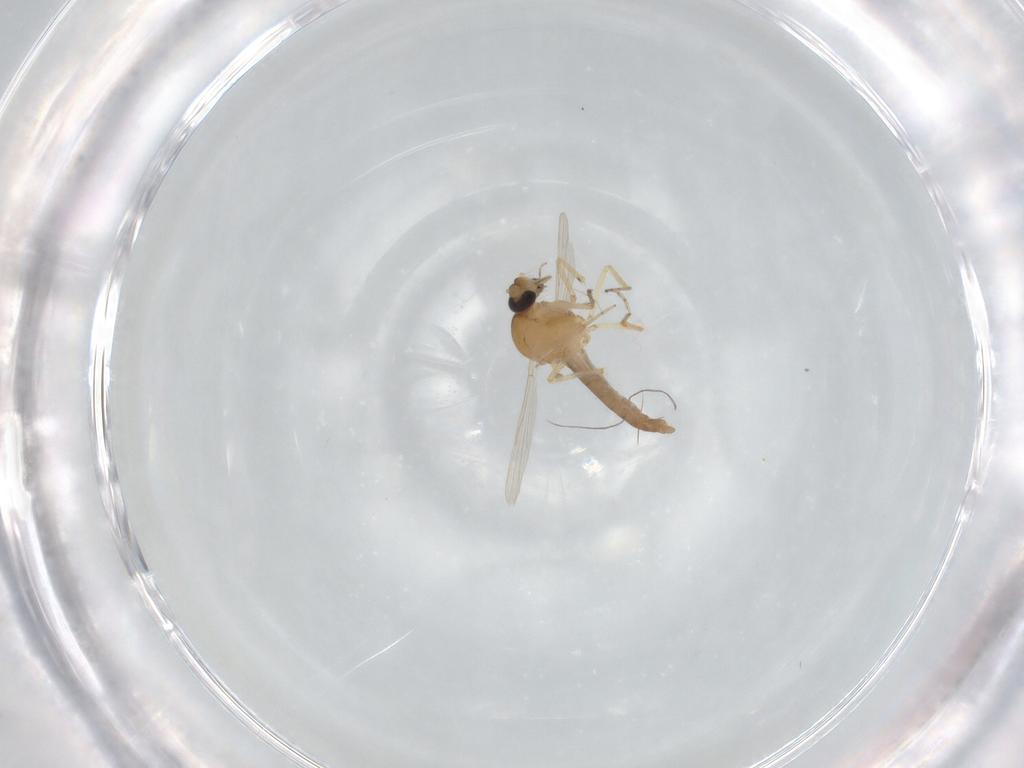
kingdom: Animalia
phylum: Arthropoda
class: Insecta
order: Diptera
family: Ceratopogonidae
